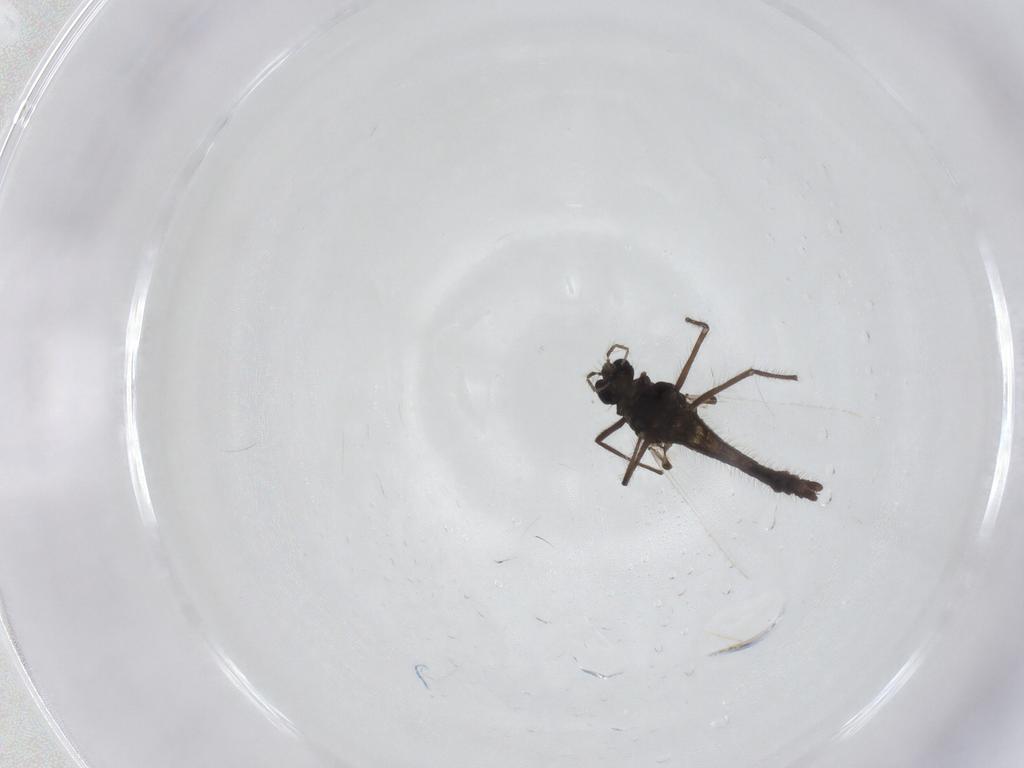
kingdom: Animalia
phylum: Arthropoda
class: Insecta
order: Diptera
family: Chironomidae
